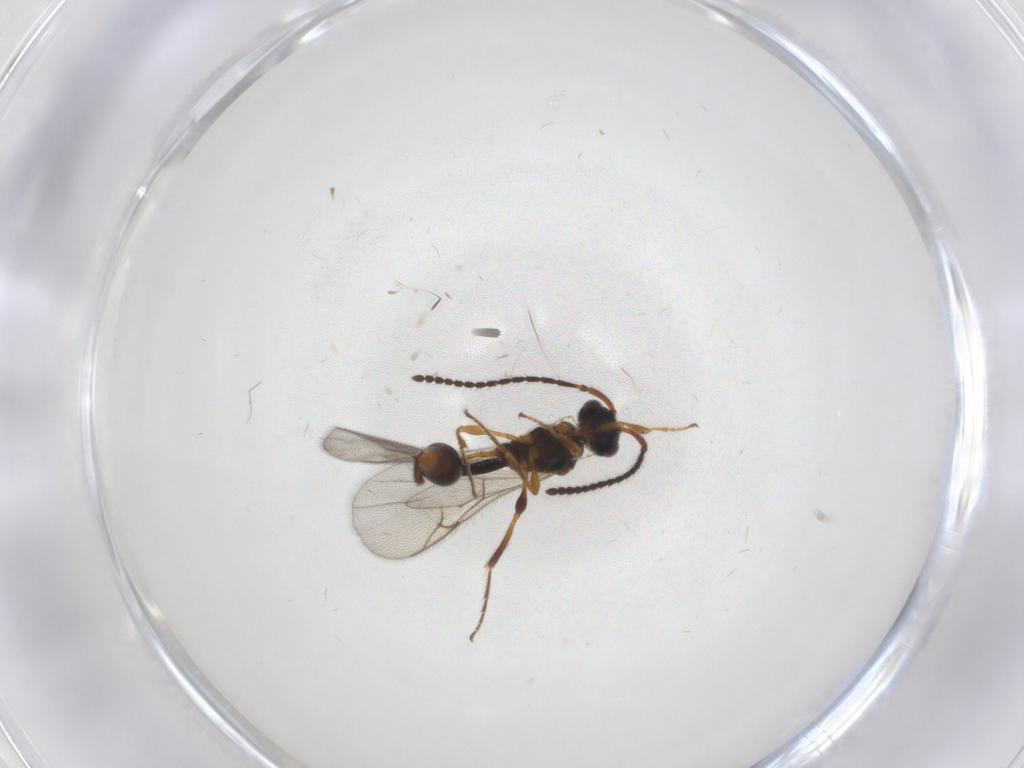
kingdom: Animalia
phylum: Arthropoda
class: Insecta
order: Hymenoptera
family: Diapriidae
